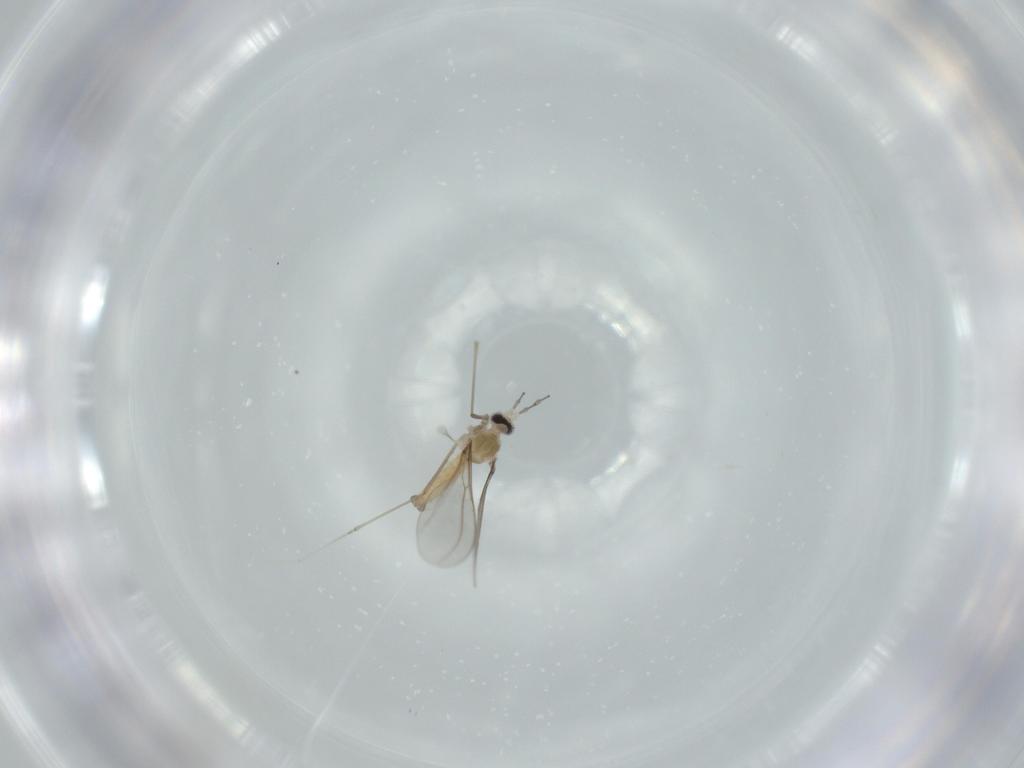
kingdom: Animalia
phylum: Arthropoda
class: Insecta
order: Diptera
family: Cecidomyiidae
